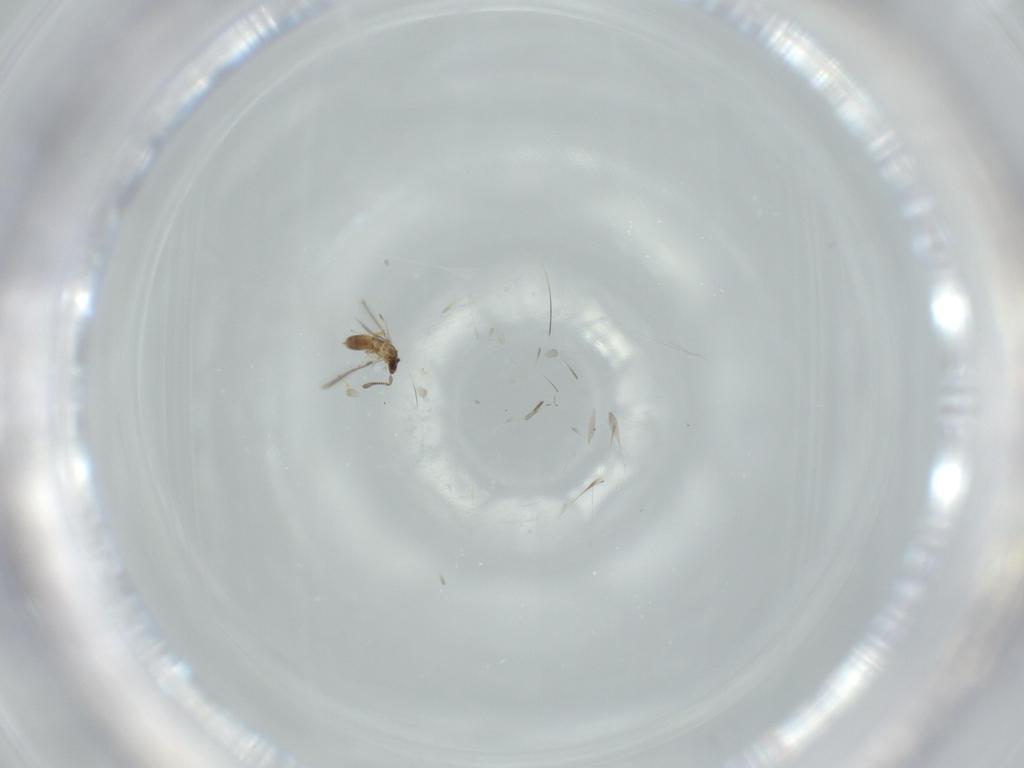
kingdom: Animalia
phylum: Arthropoda
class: Insecta
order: Hymenoptera
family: Mymaridae
